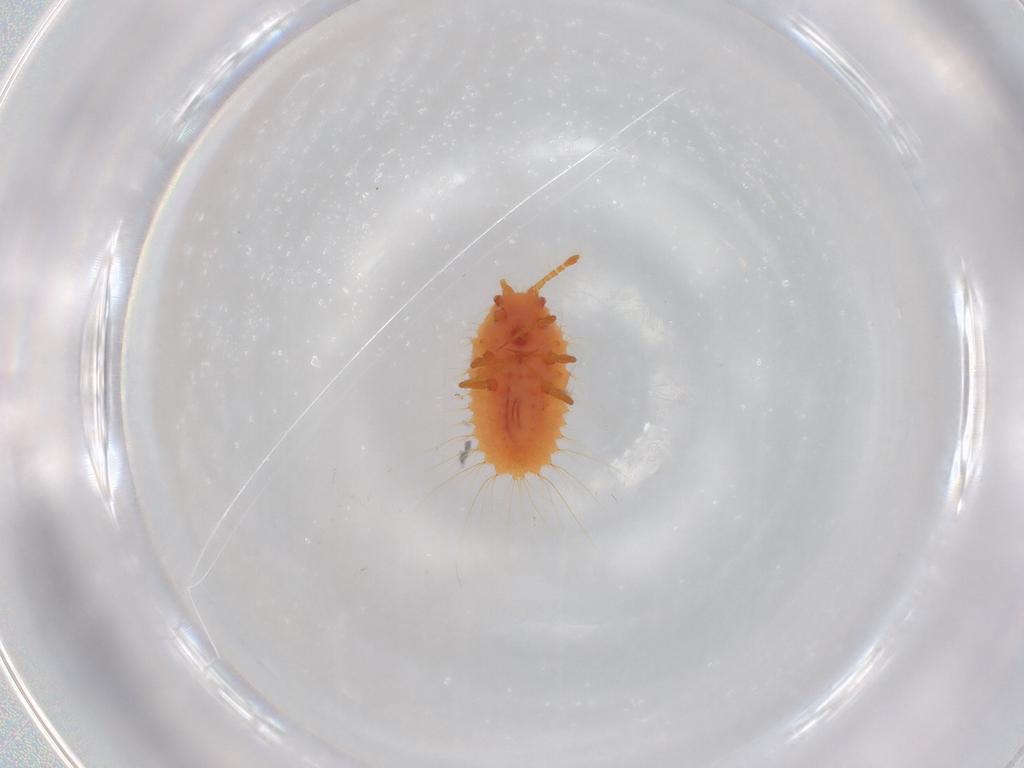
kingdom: Animalia
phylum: Arthropoda
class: Insecta
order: Hemiptera
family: Coccoidea_incertae_sedis
